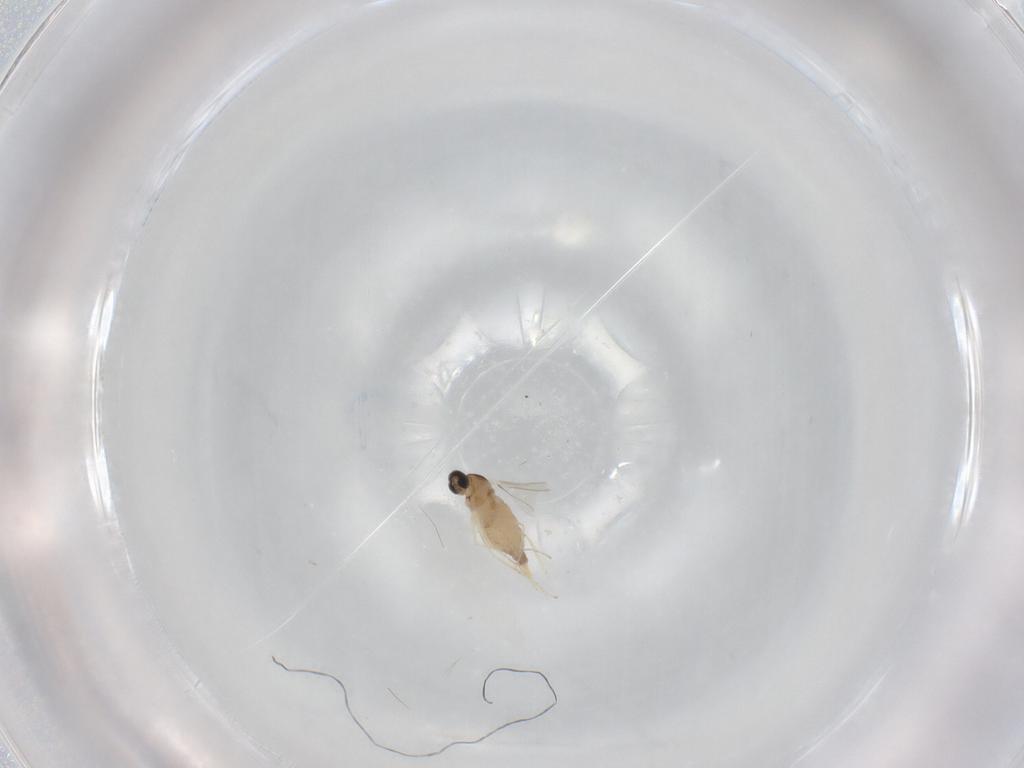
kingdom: Animalia
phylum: Arthropoda
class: Insecta
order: Diptera
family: Cecidomyiidae
